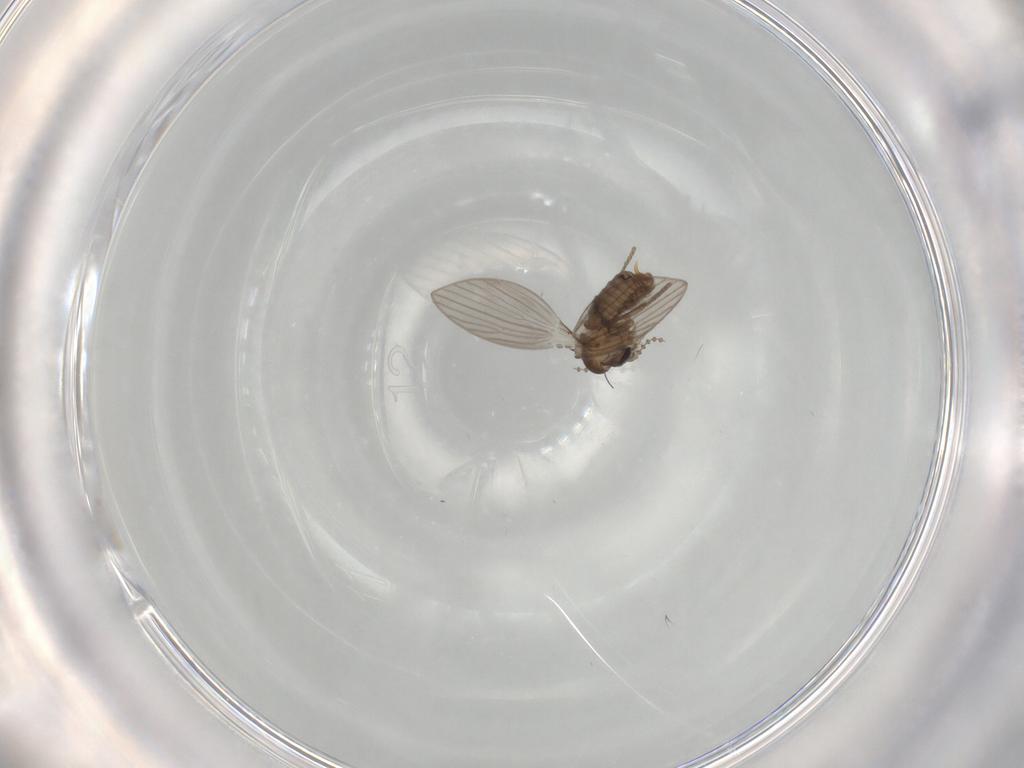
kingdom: Animalia
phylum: Arthropoda
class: Insecta
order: Diptera
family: Psychodidae
